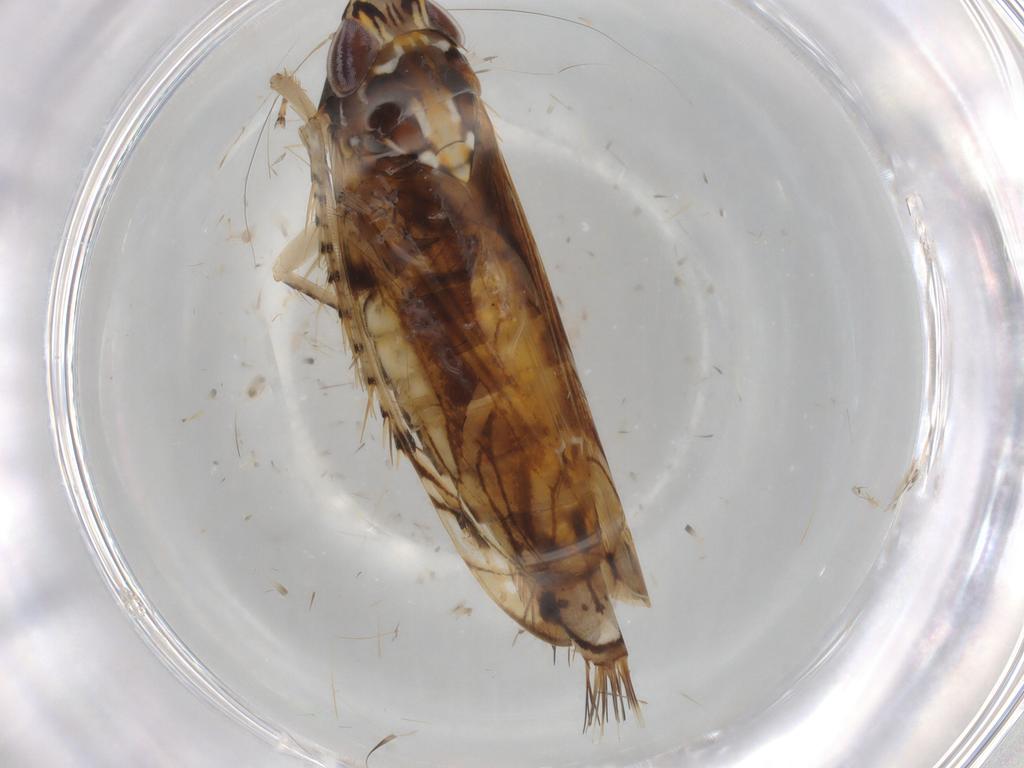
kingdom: Animalia
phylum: Arthropoda
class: Insecta
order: Hemiptera
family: Cicadellidae
